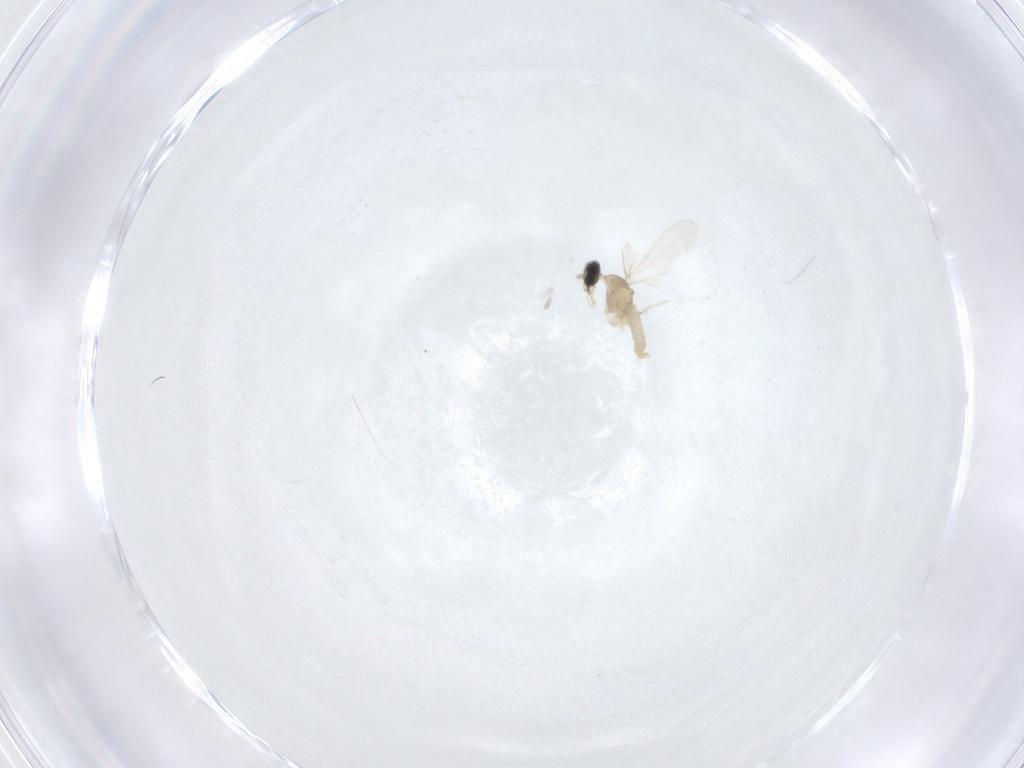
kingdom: Animalia
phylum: Arthropoda
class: Insecta
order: Diptera
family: Cecidomyiidae
